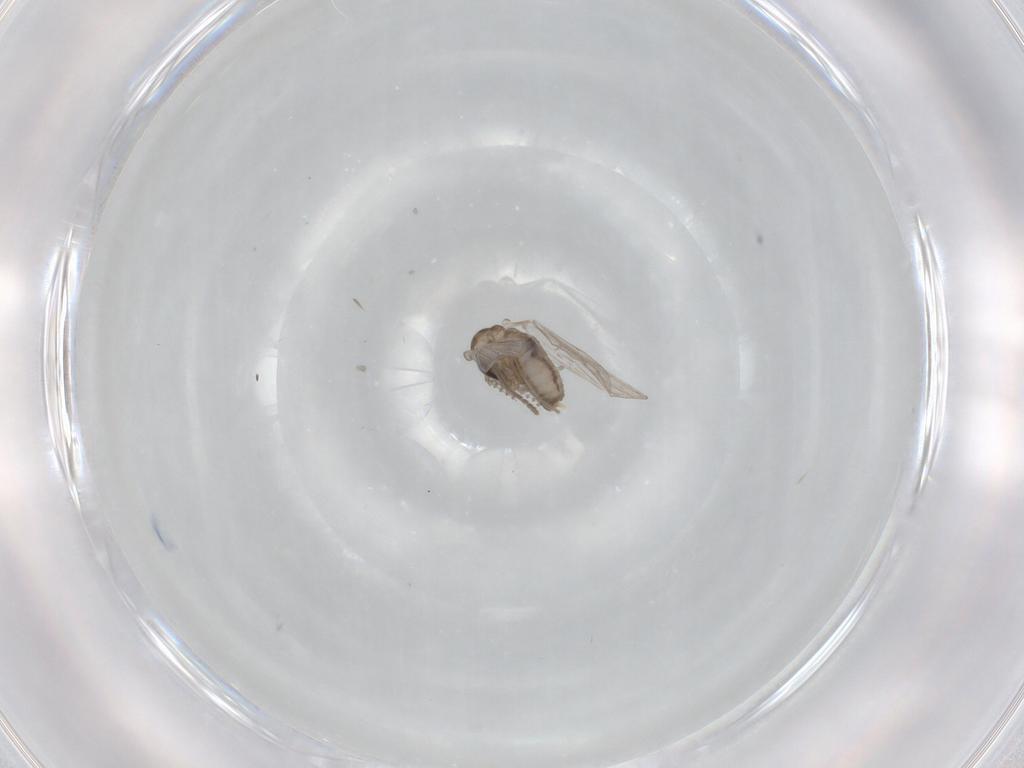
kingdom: Animalia
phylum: Arthropoda
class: Insecta
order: Diptera
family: Psychodidae
